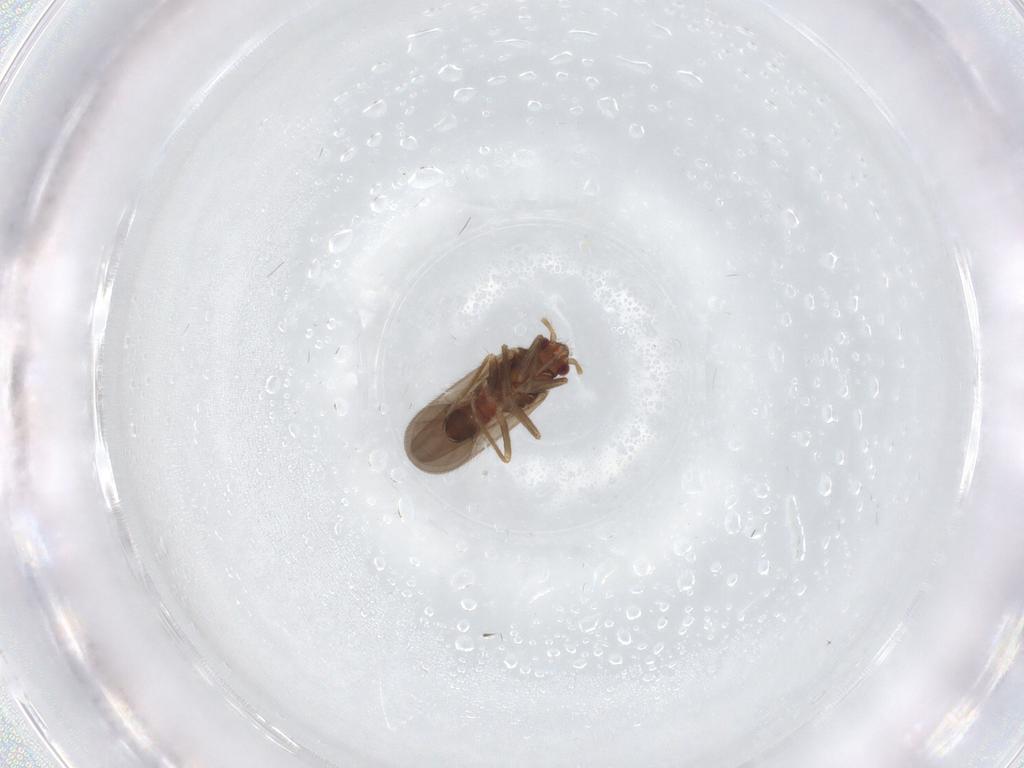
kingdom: Animalia
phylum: Arthropoda
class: Insecta
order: Hemiptera
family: Ceratocombidae
